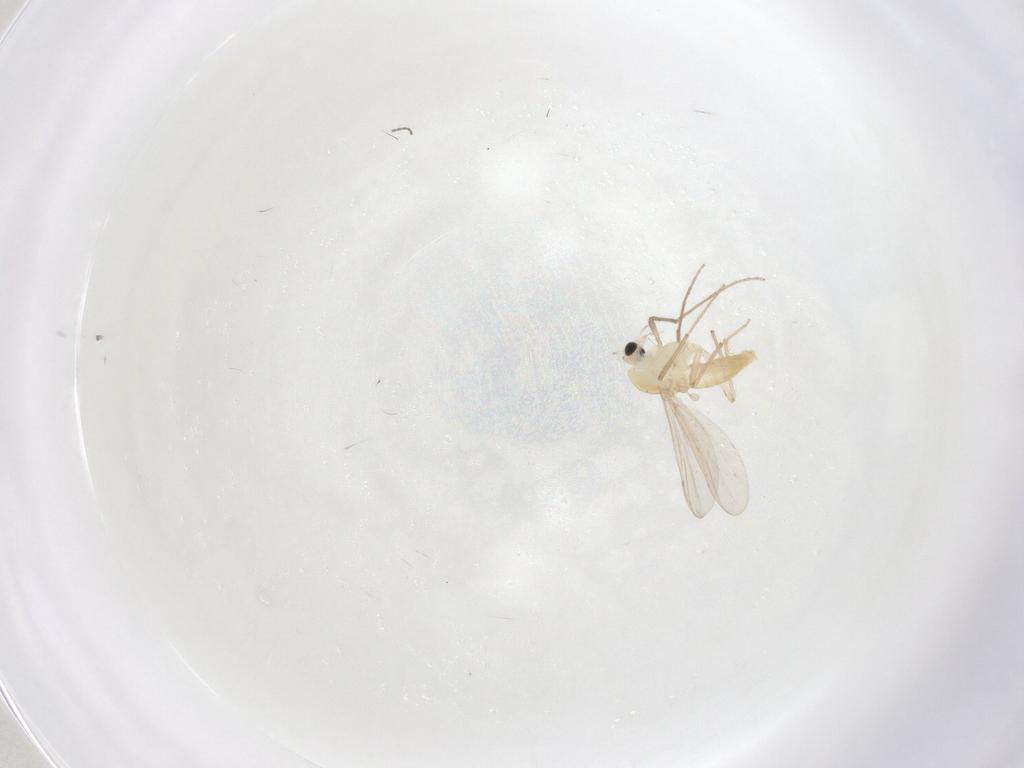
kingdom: Animalia
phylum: Arthropoda
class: Insecta
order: Diptera
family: Chironomidae
